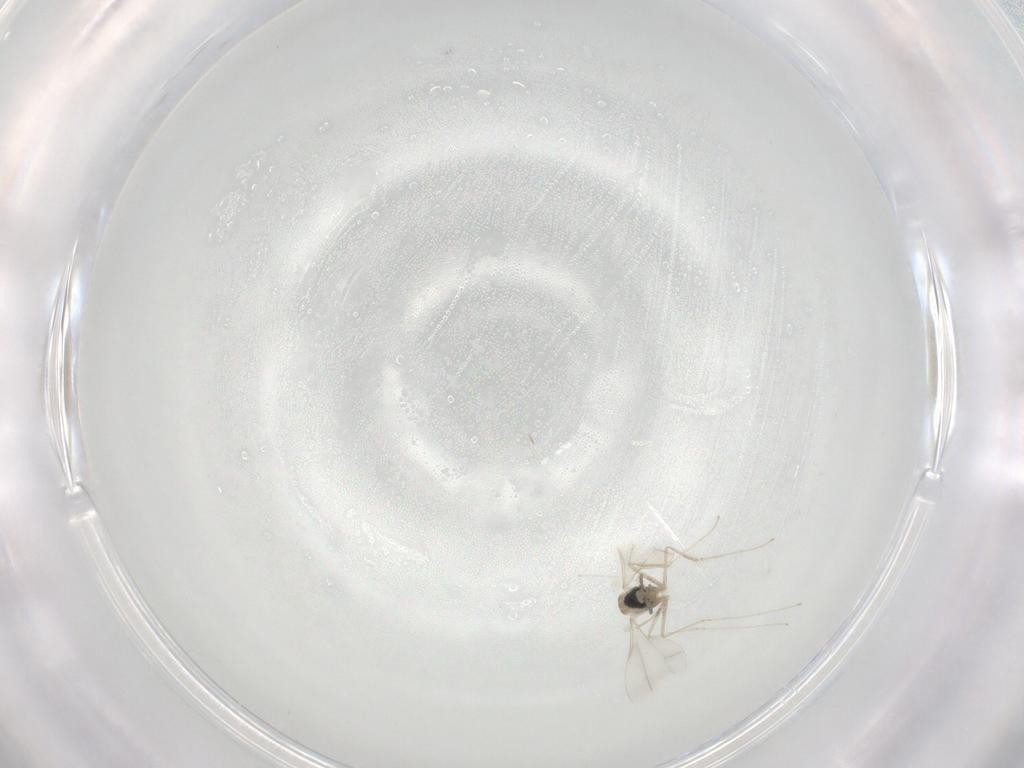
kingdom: Animalia
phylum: Arthropoda
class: Insecta
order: Diptera
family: Cecidomyiidae
